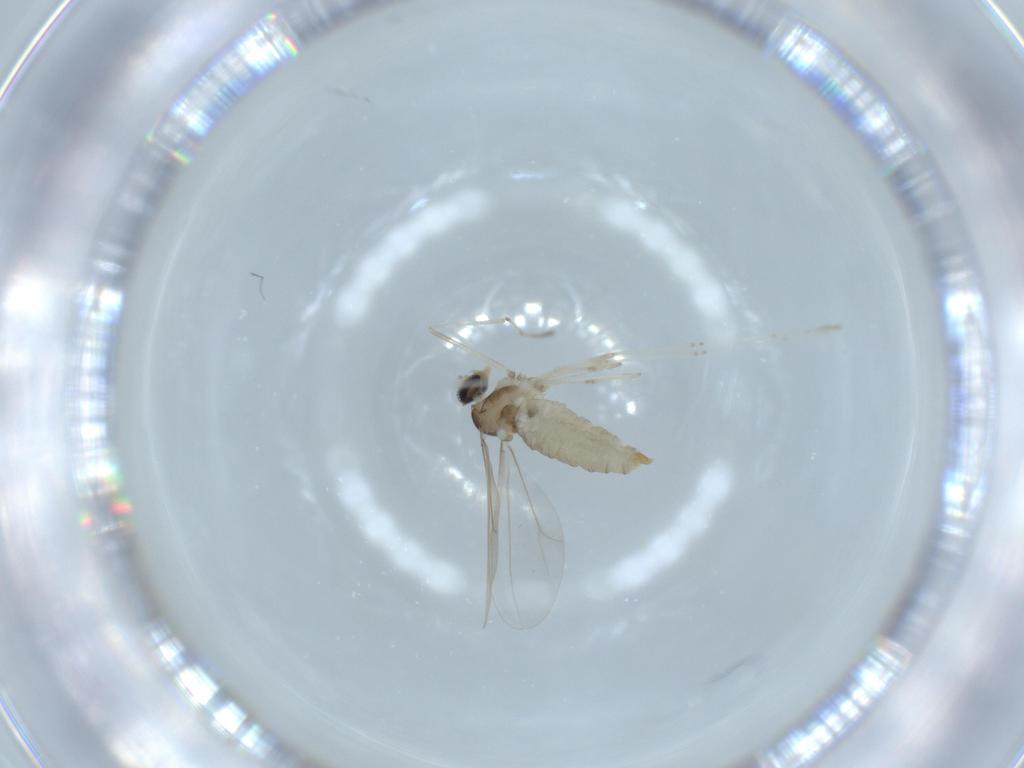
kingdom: Animalia
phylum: Arthropoda
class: Insecta
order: Diptera
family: Cecidomyiidae
